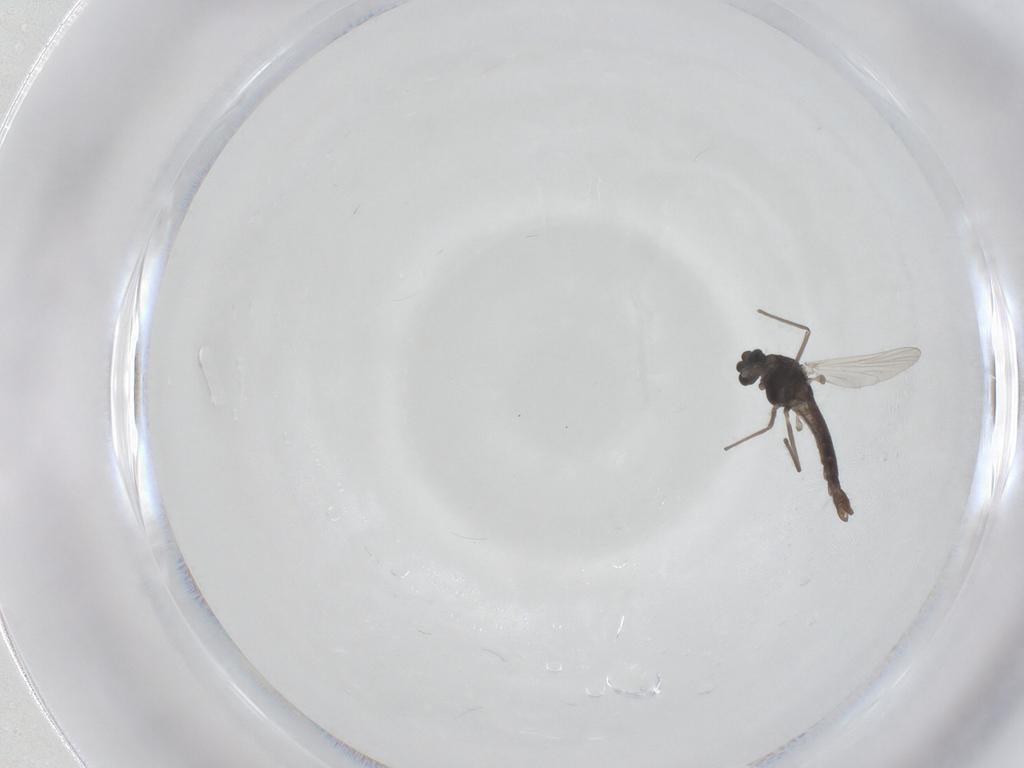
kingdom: Animalia
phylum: Arthropoda
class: Insecta
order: Diptera
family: Chironomidae
